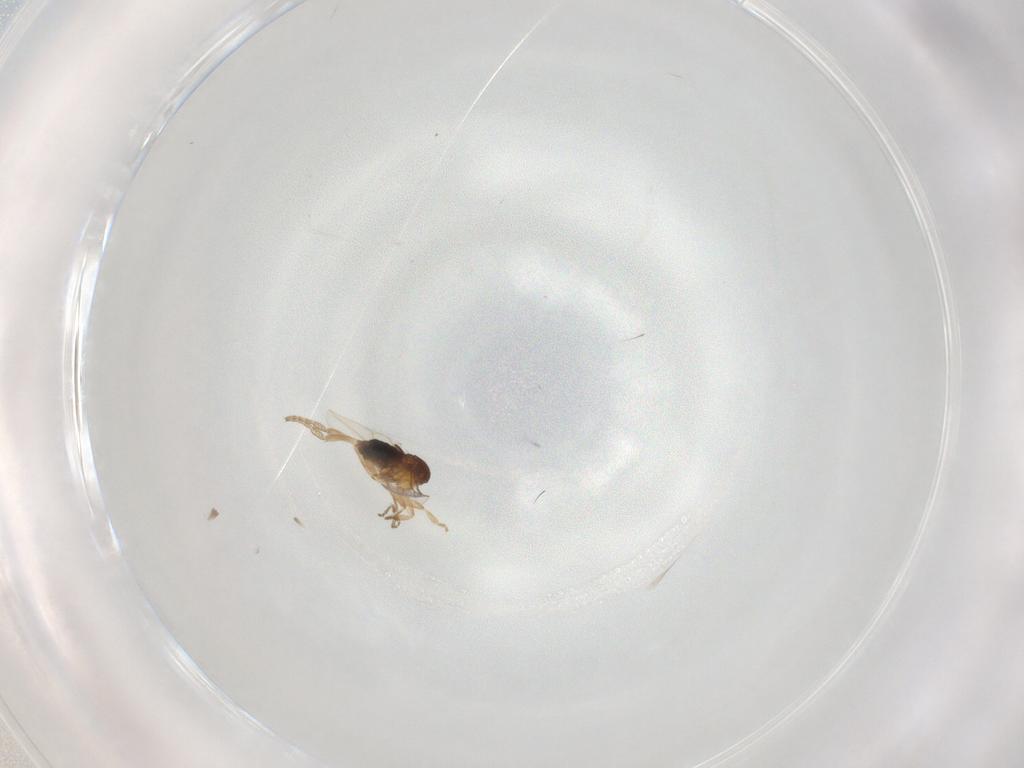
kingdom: Animalia
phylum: Arthropoda
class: Insecta
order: Diptera
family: Phoridae
